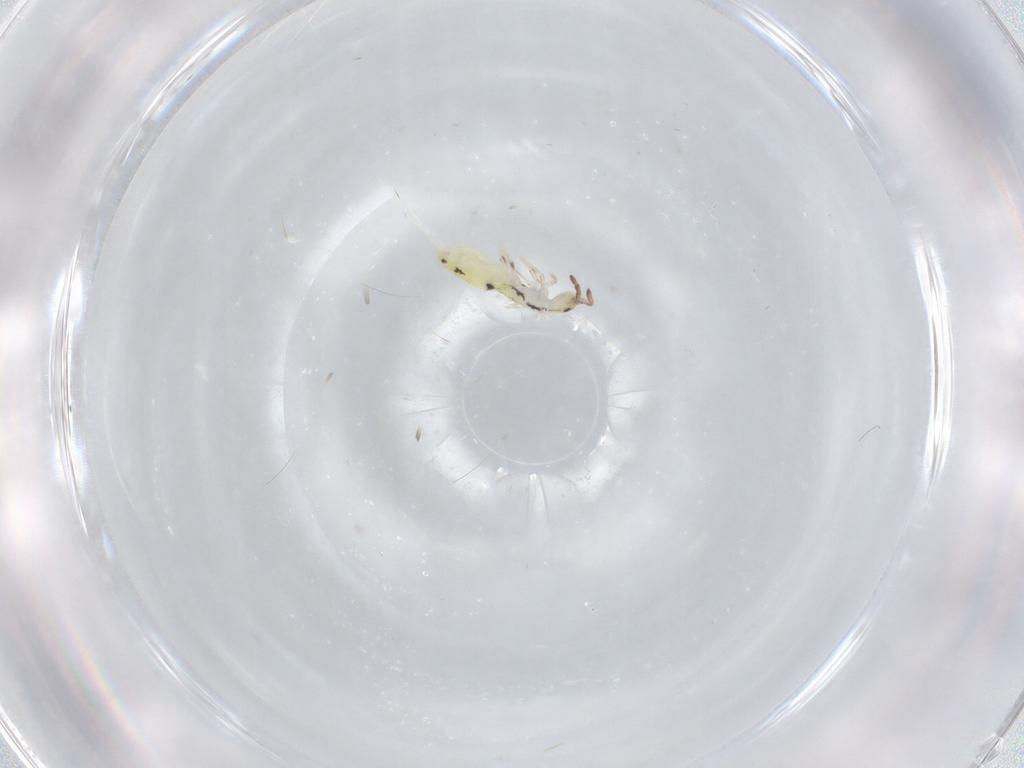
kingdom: Animalia
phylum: Arthropoda
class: Collembola
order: Entomobryomorpha
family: Entomobryidae
